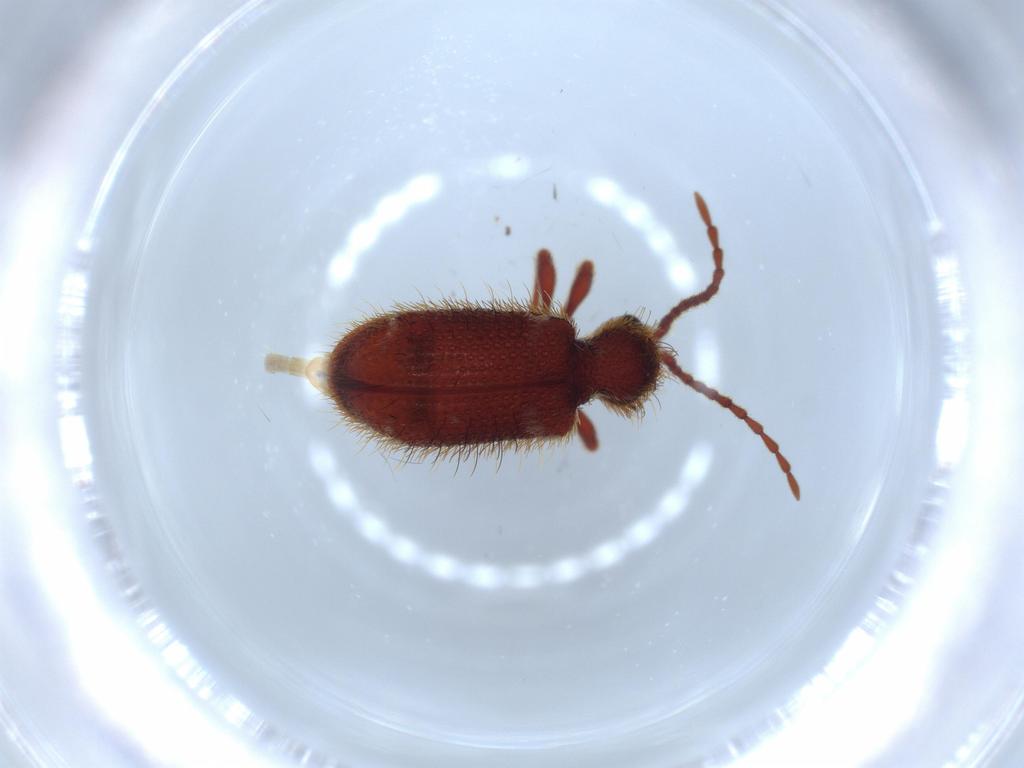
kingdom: Animalia
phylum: Arthropoda
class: Insecta
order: Coleoptera
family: Ptinidae
